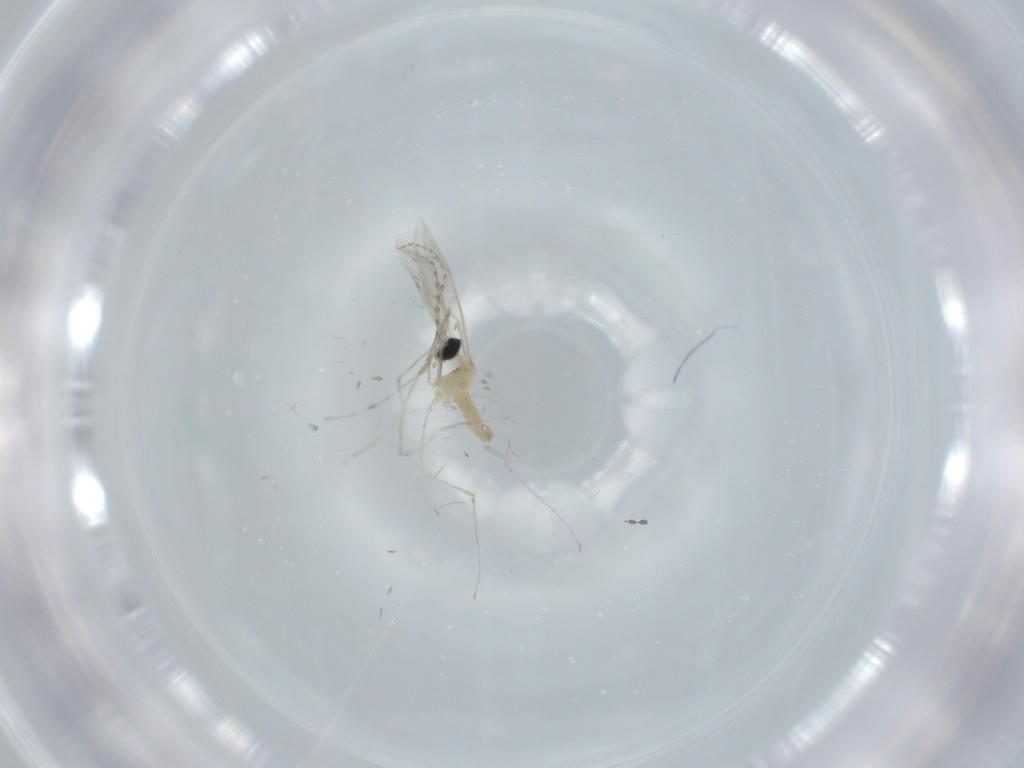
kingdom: Animalia
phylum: Arthropoda
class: Insecta
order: Diptera
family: Cecidomyiidae
